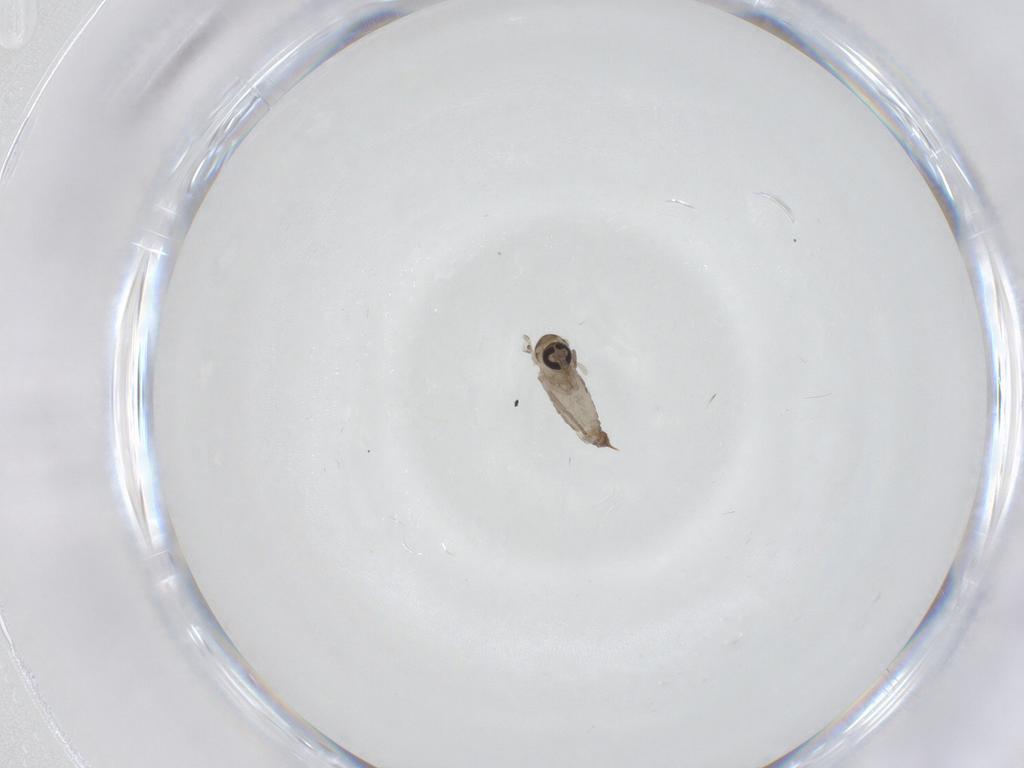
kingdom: Animalia
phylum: Arthropoda
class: Insecta
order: Diptera
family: Psychodidae
